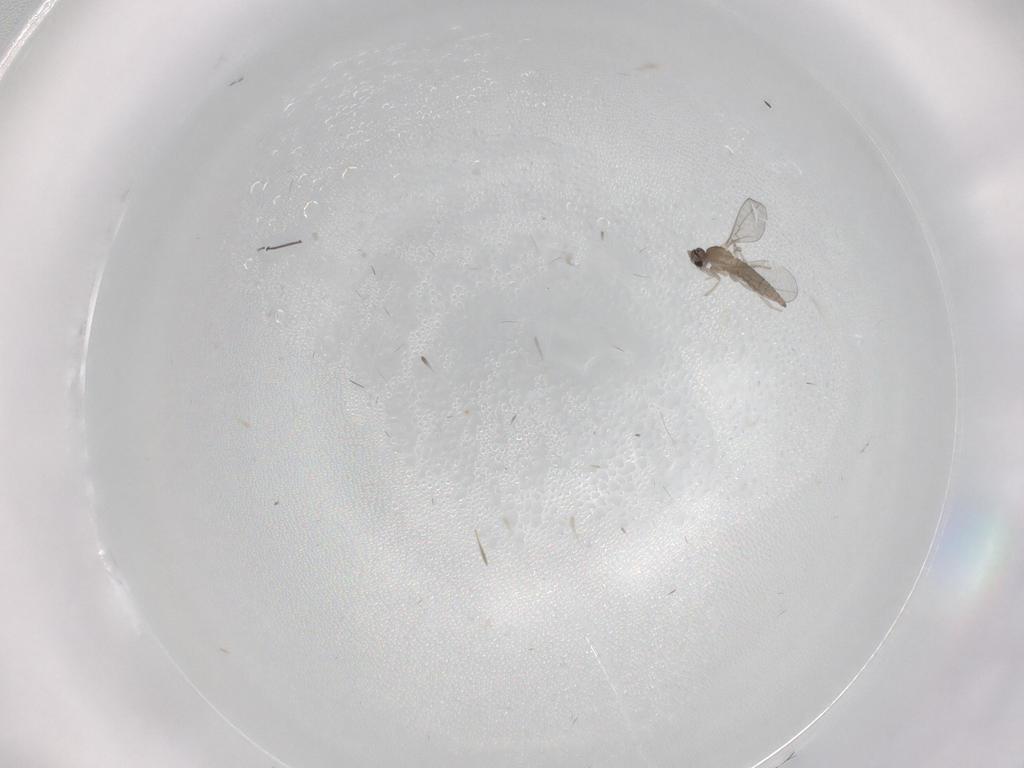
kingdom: Animalia
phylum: Arthropoda
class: Insecta
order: Diptera
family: Cecidomyiidae
